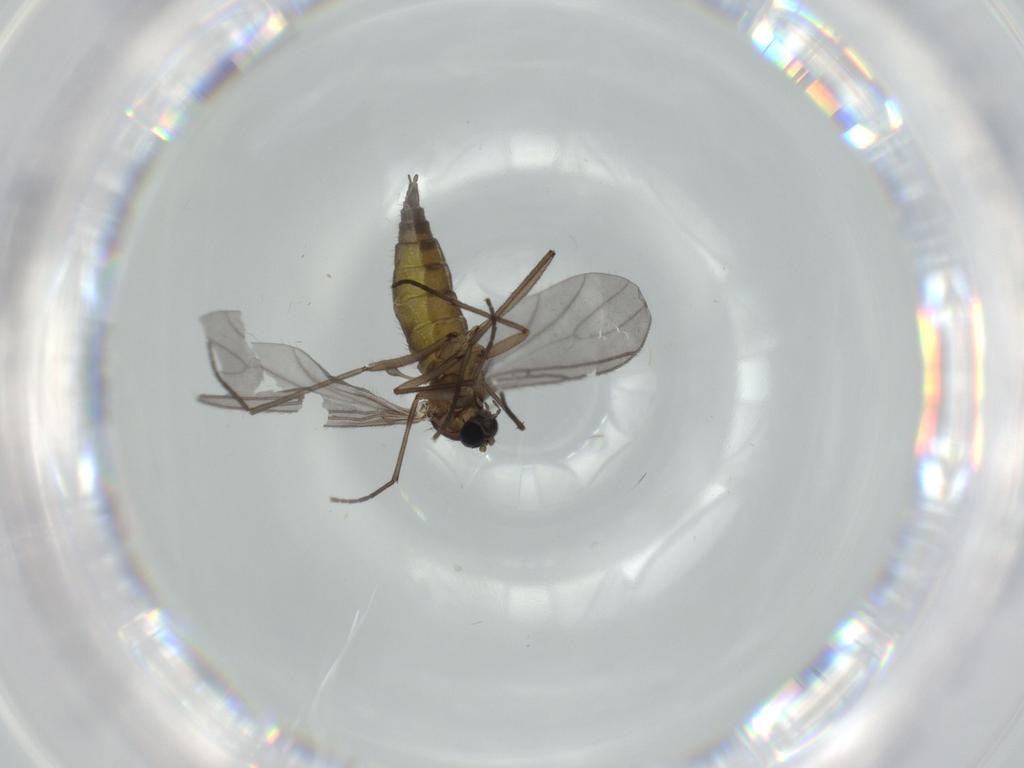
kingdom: Animalia
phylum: Arthropoda
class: Insecta
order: Diptera
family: Sciaridae
